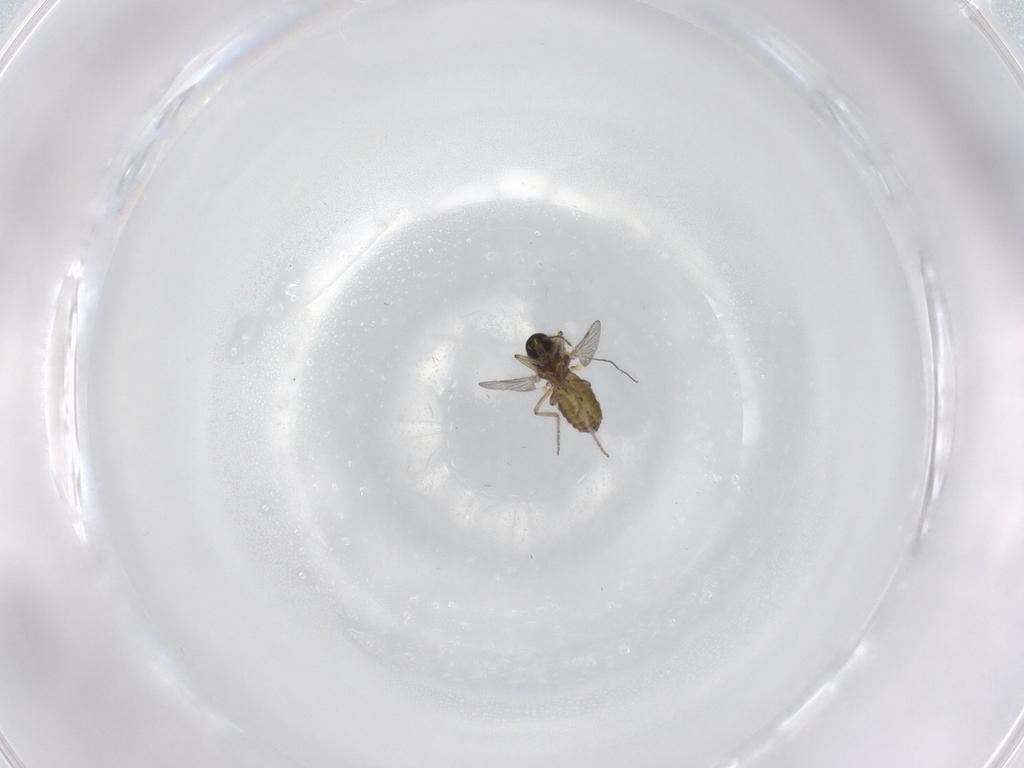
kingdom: Animalia
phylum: Arthropoda
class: Insecta
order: Diptera
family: Ceratopogonidae
